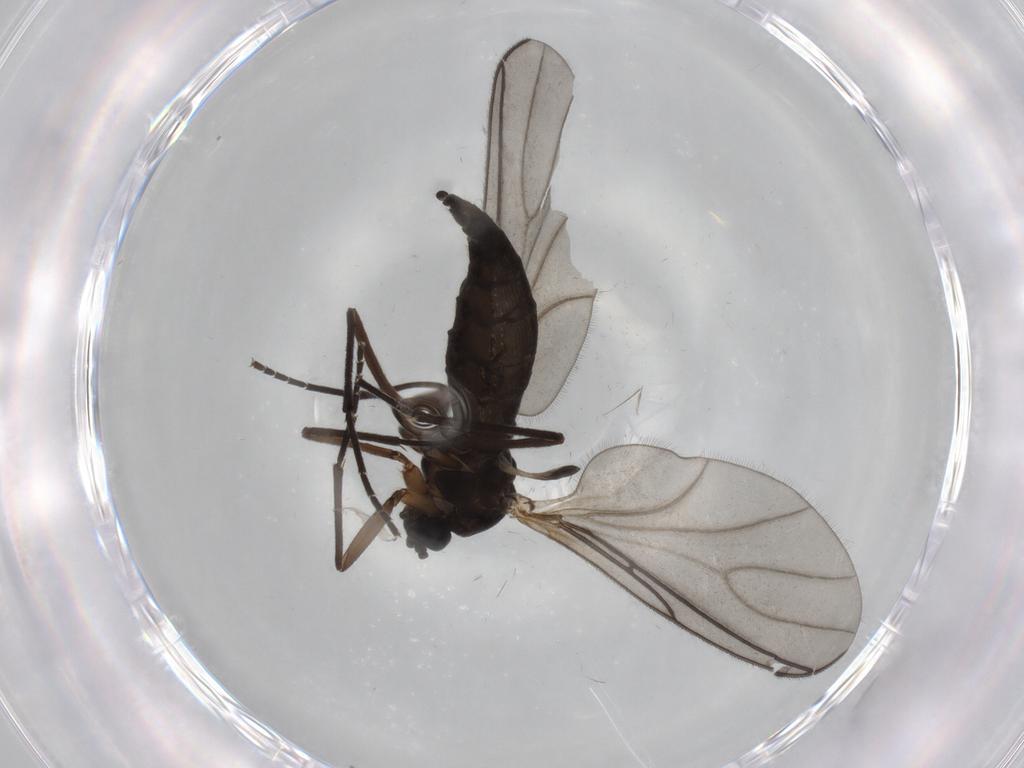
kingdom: Animalia
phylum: Arthropoda
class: Insecta
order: Diptera
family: Sciaridae
